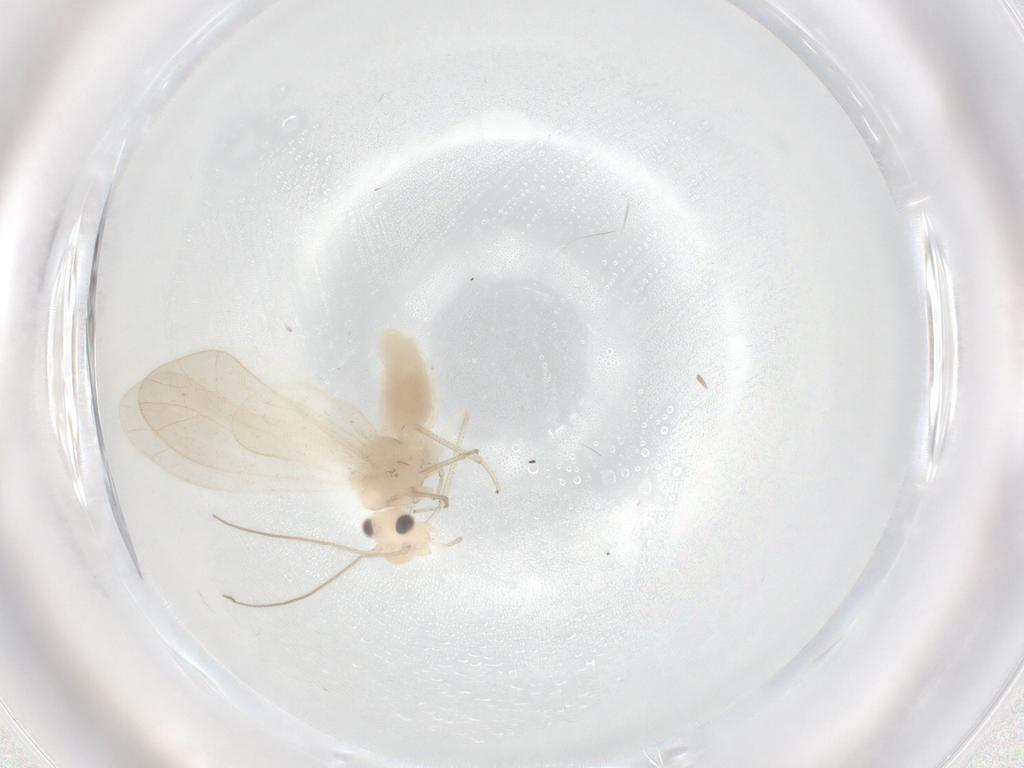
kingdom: Animalia
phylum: Arthropoda
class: Insecta
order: Psocodea
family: Caeciliusidae
